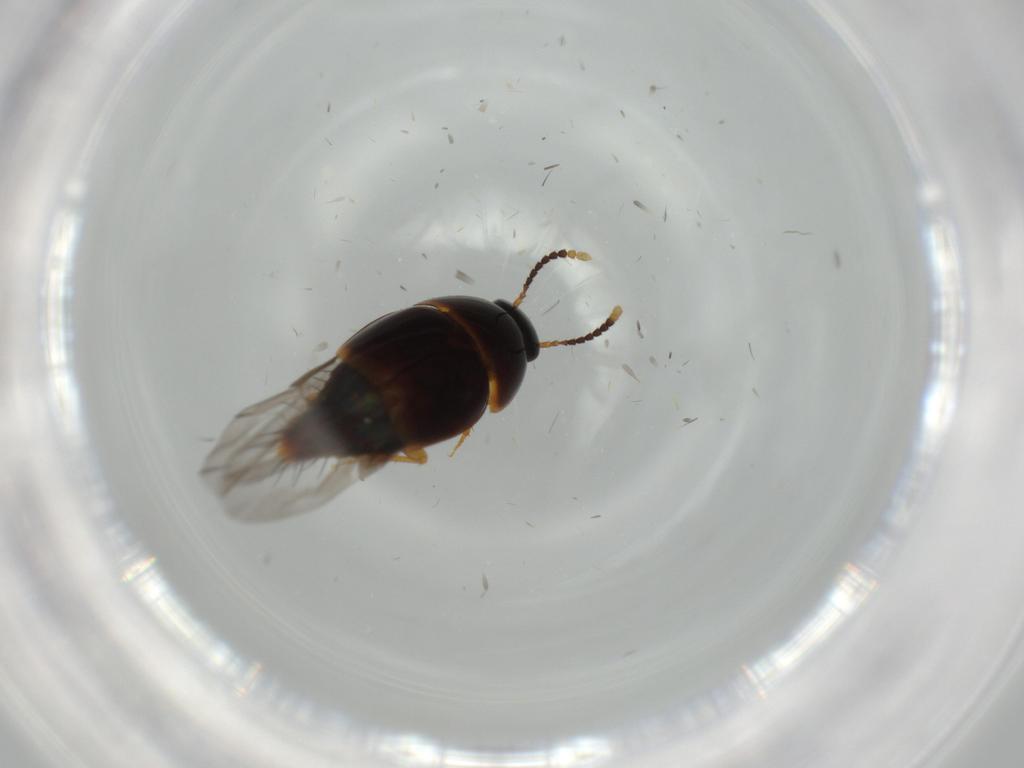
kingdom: Animalia
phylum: Arthropoda
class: Insecta
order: Coleoptera
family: Staphylinidae
